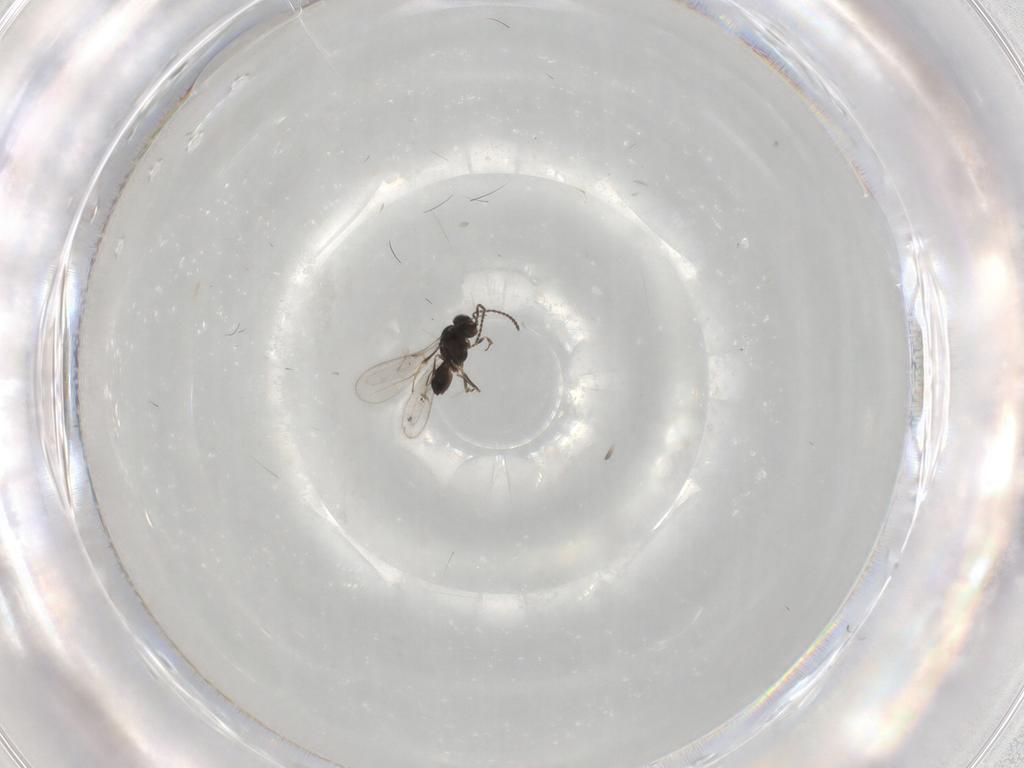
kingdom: Animalia
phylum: Arthropoda
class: Insecta
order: Hymenoptera
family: Scelionidae
